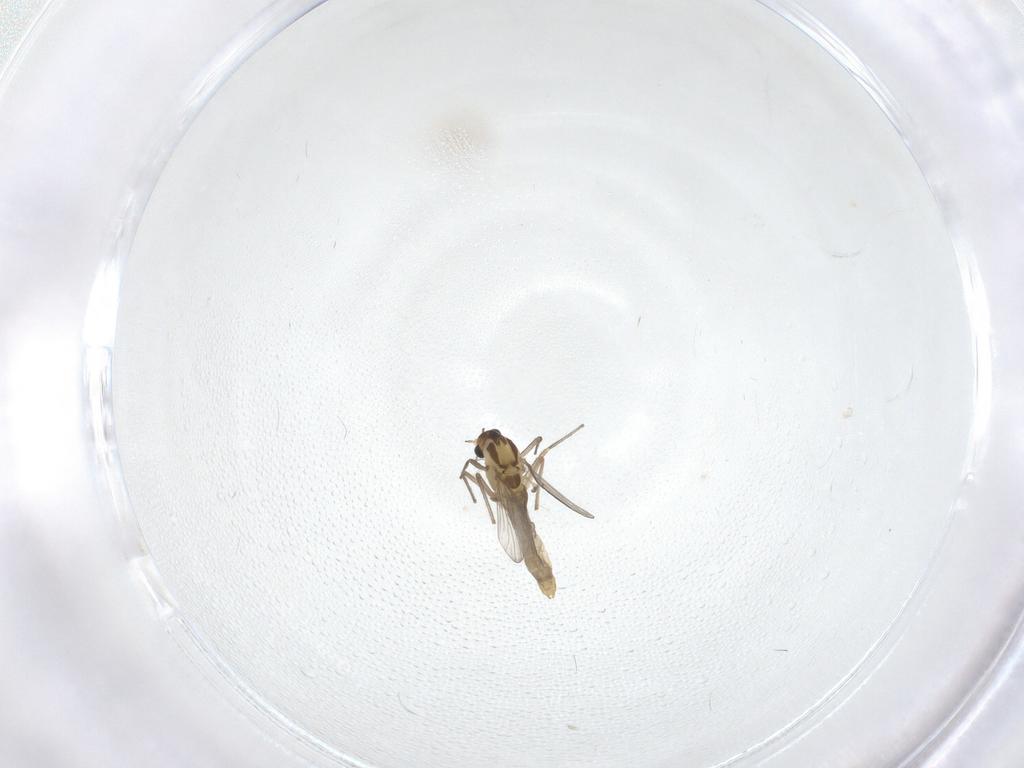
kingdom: Animalia
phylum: Arthropoda
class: Insecta
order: Diptera
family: Chironomidae
